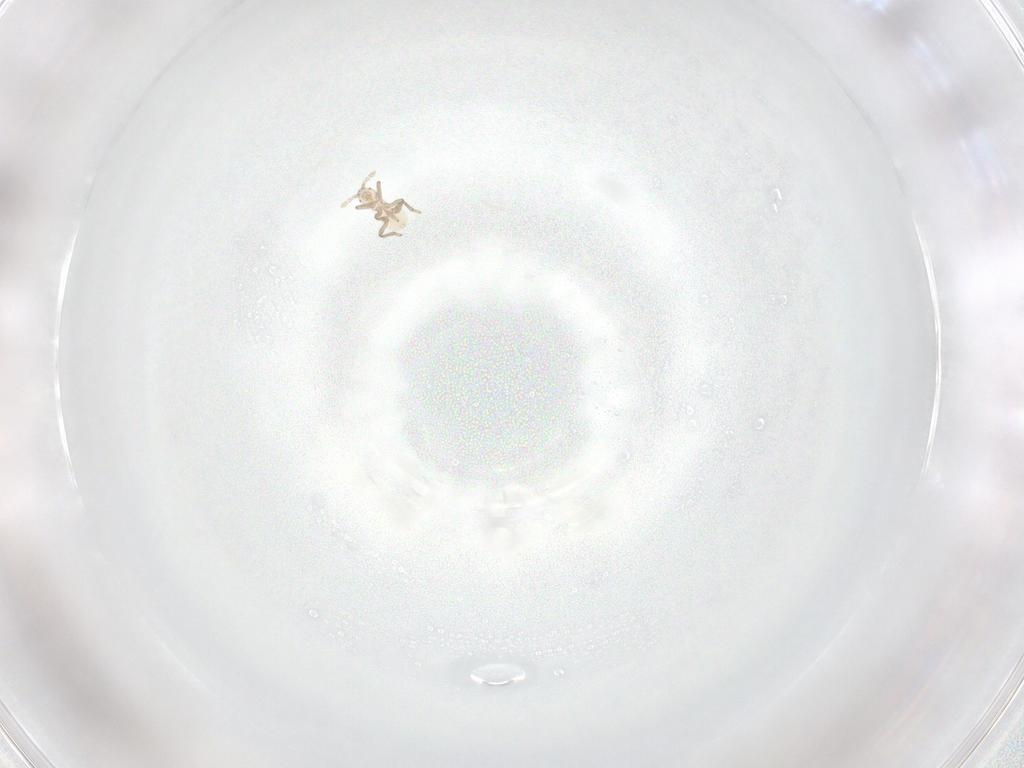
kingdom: Animalia
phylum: Arthropoda
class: Insecta
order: Hemiptera
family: Aphididae
